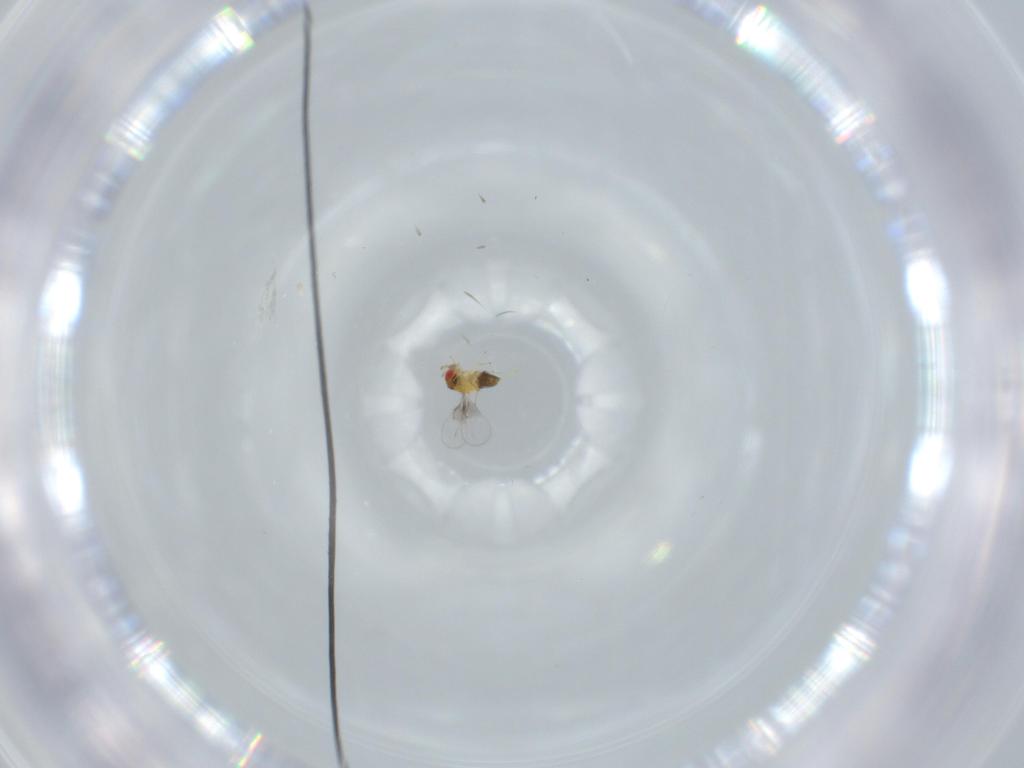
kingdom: Animalia
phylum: Arthropoda
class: Insecta
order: Hymenoptera
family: Trichogrammatidae
